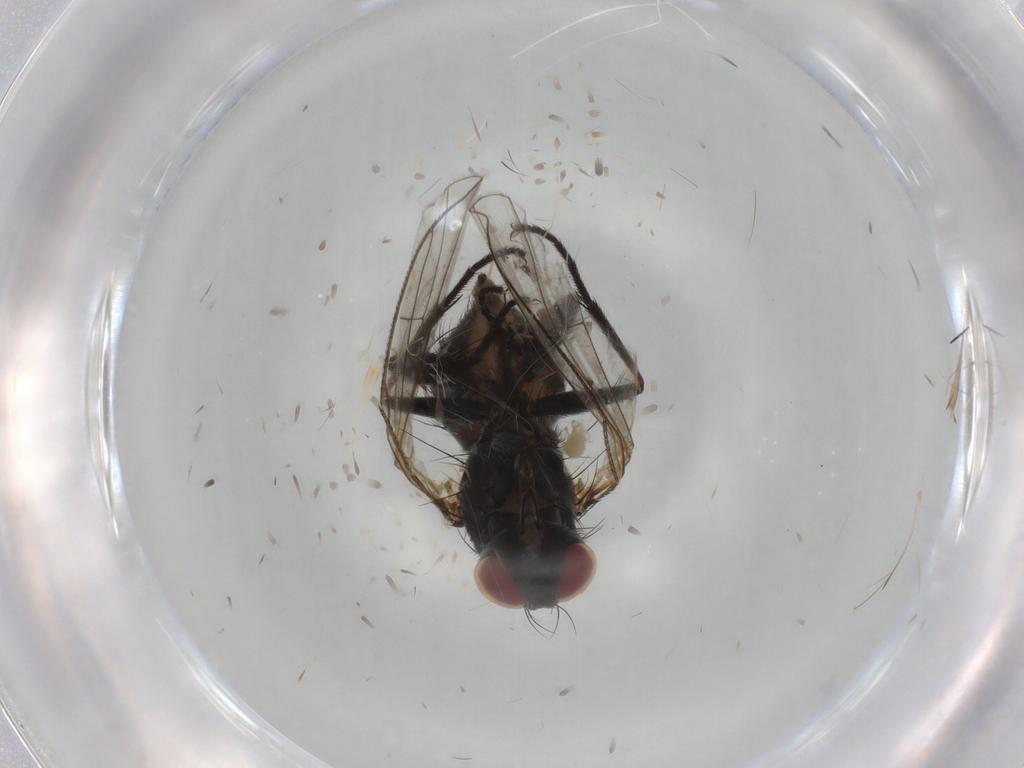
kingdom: Animalia
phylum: Arthropoda
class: Insecta
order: Diptera
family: Muscidae
